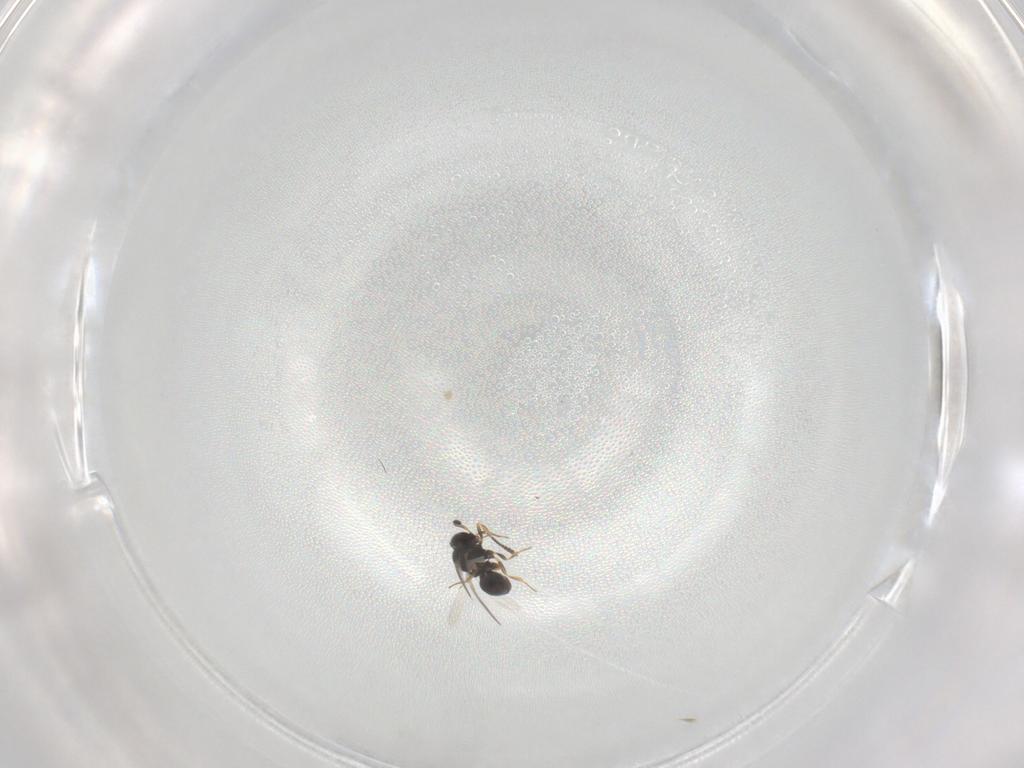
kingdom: Animalia
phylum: Arthropoda
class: Insecta
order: Hymenoptera
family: Scelionidae
